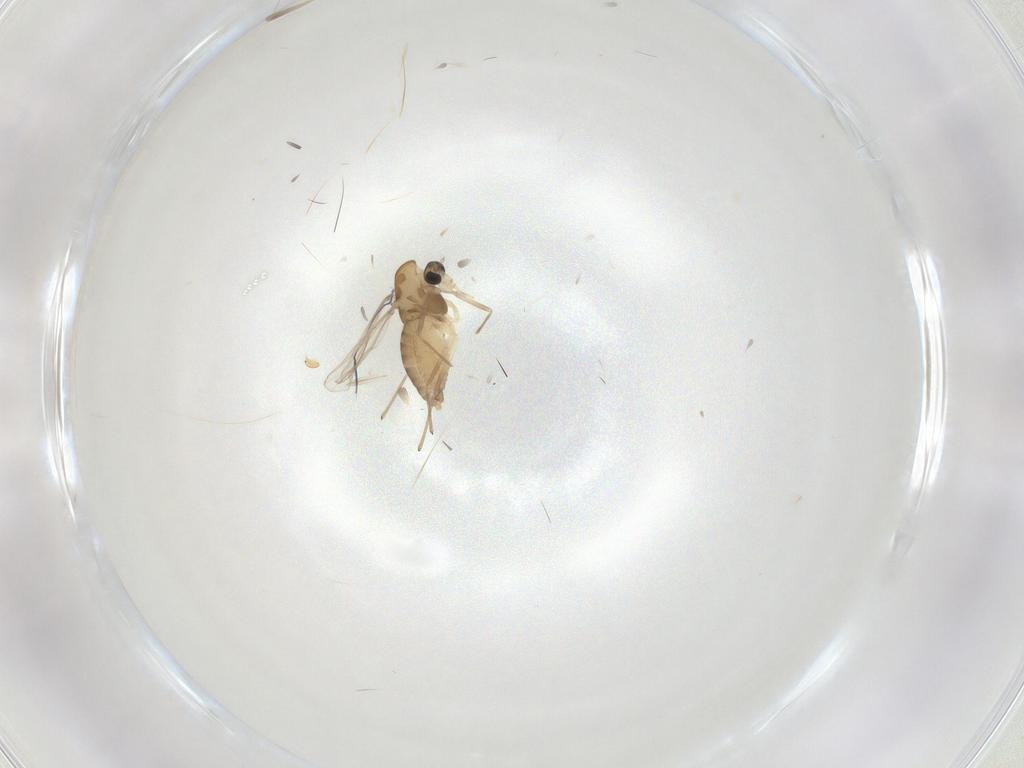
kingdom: Animalia
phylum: Arthropoda
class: Insecta
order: Diptera
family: Chironomidae
